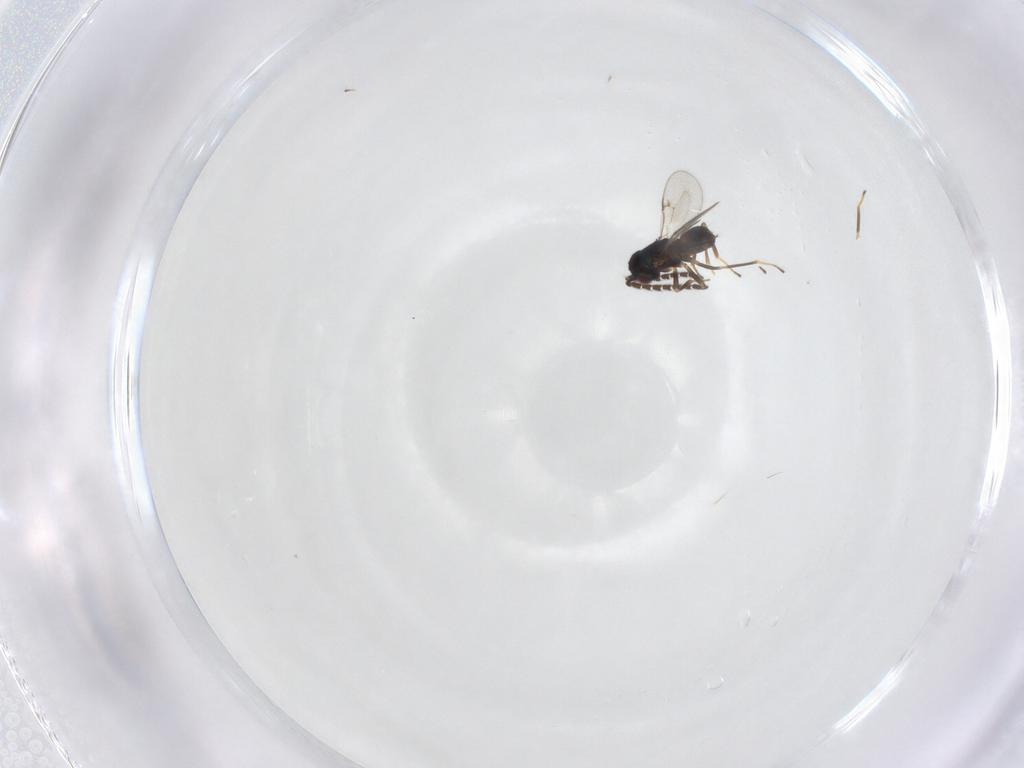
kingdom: Animalia
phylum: Arthropoda
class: Insecta
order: Hymenoptera
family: Encyrtidae
